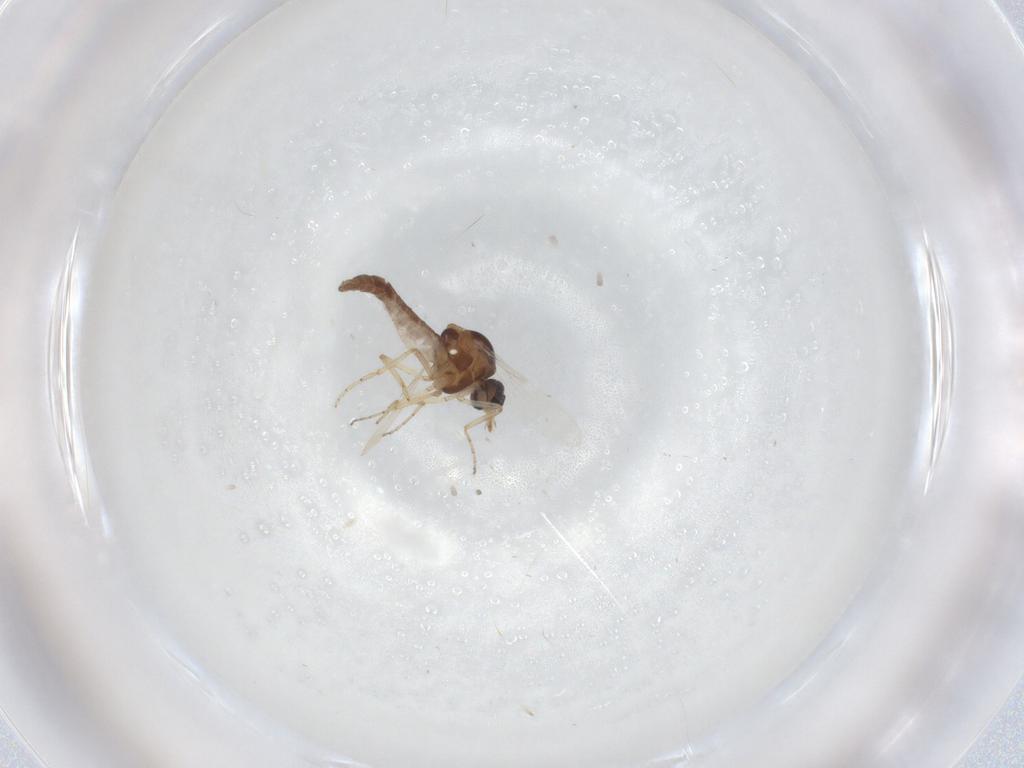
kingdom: Animalia
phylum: Arthropoda
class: Insecta
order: Diptera
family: Ceratopogonidae
